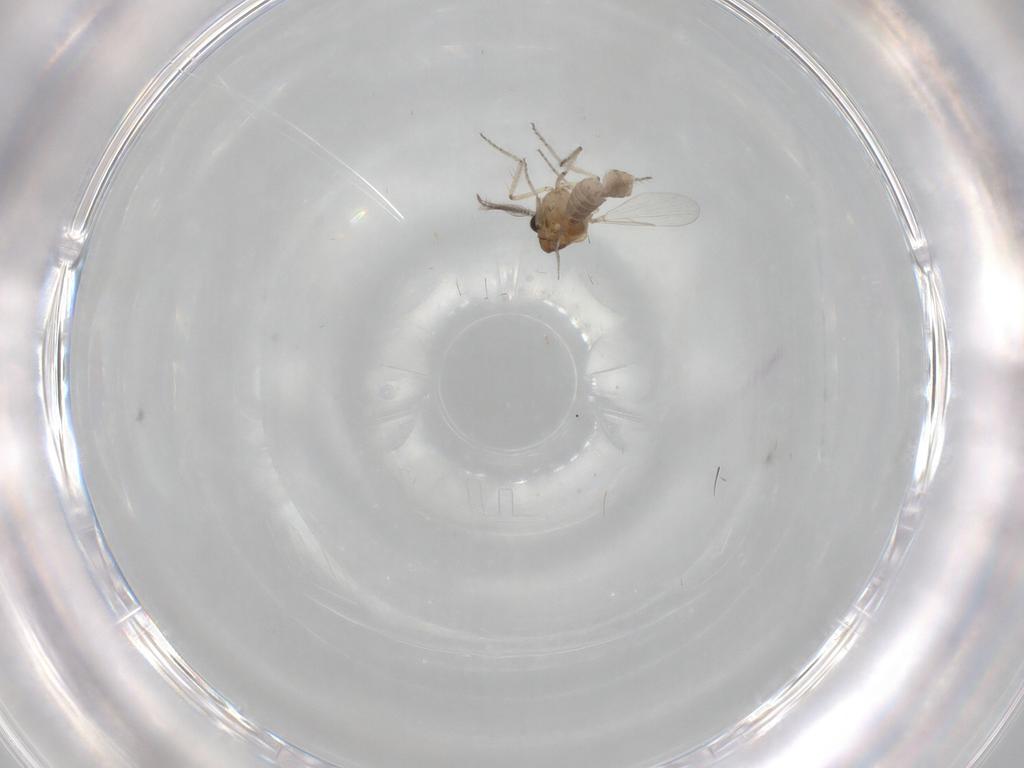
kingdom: Animalia
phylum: Arthropoda
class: Insecta
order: Diptera
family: Ceratopogonidae
